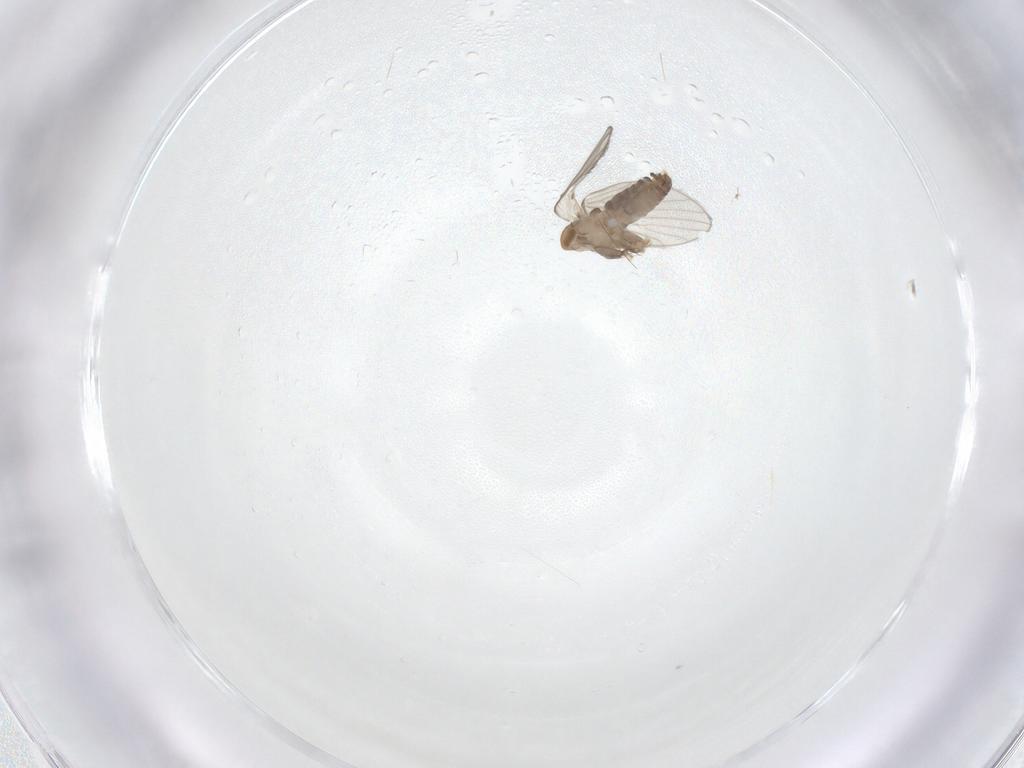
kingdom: Animalia
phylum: Arthropoda
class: Insecta
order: Diptera
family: Psychodidae
